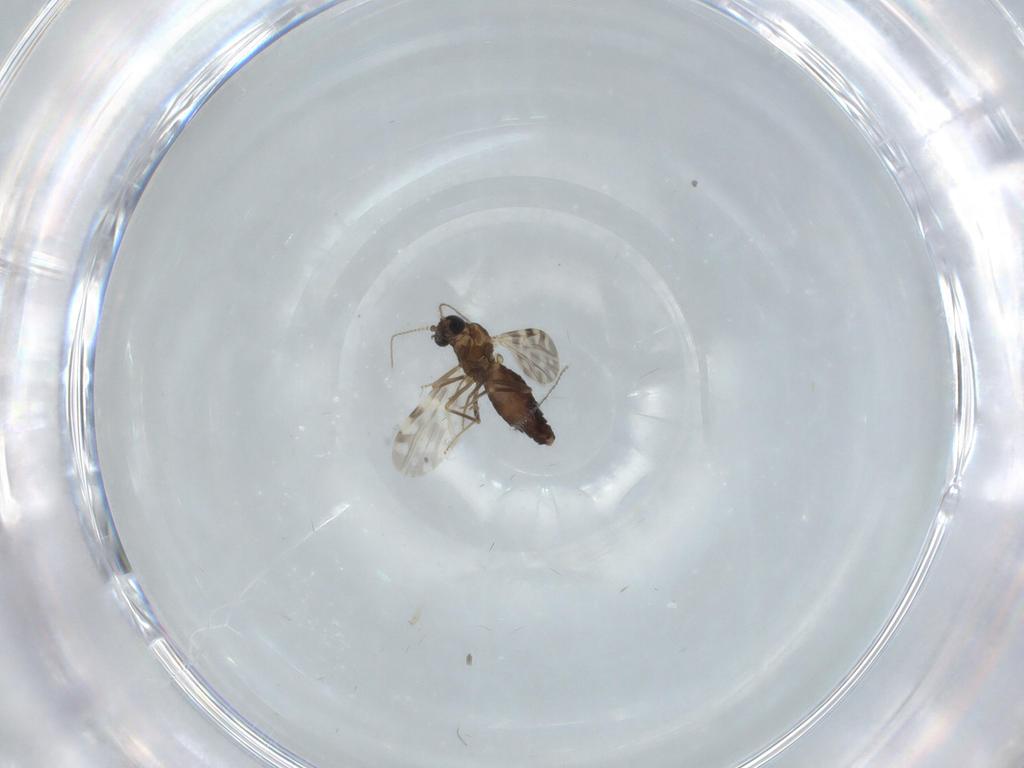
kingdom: Animalia
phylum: Arthropoda
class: Insecta
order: Diptera
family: Ceratopogonidae
